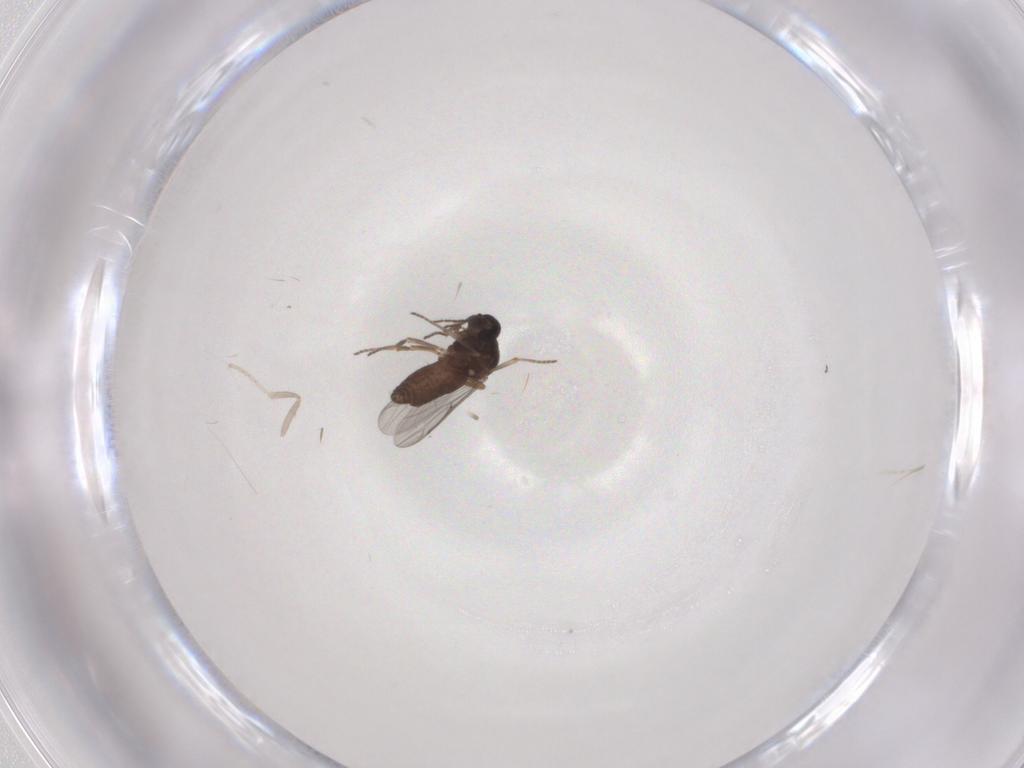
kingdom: Animalia
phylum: Arthropoda
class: Insecta
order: Diptera
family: Ceratopogonidae
